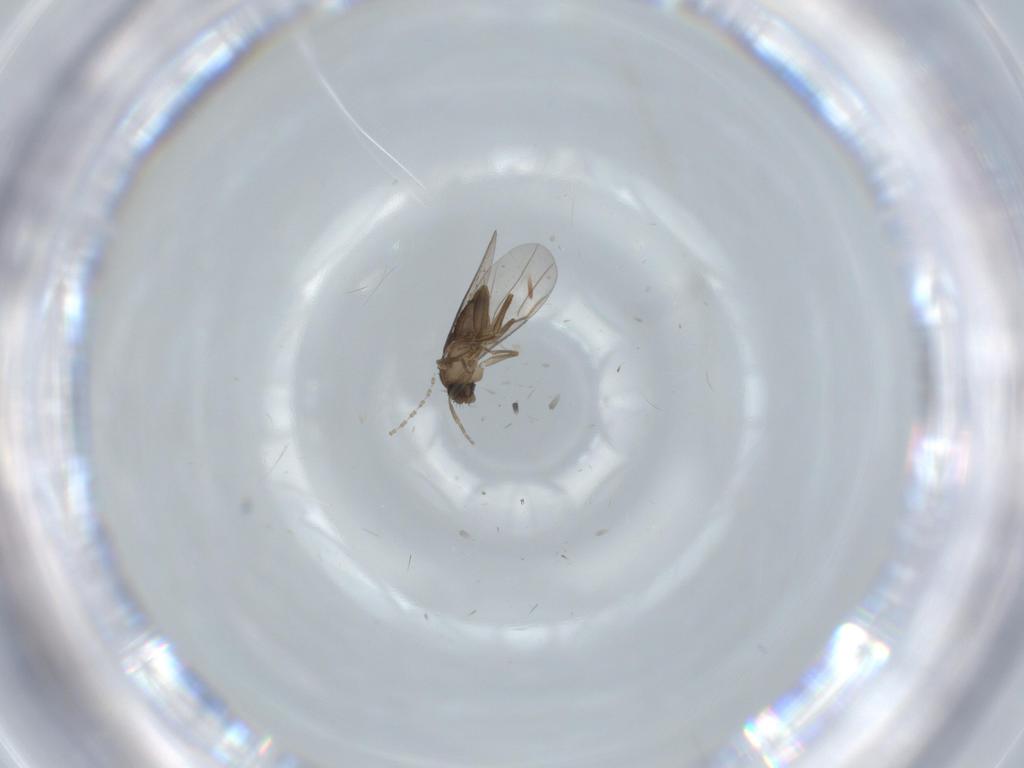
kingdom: Animalia
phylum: Arthropoda
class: Insecta
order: Diptera
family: Phoridae
